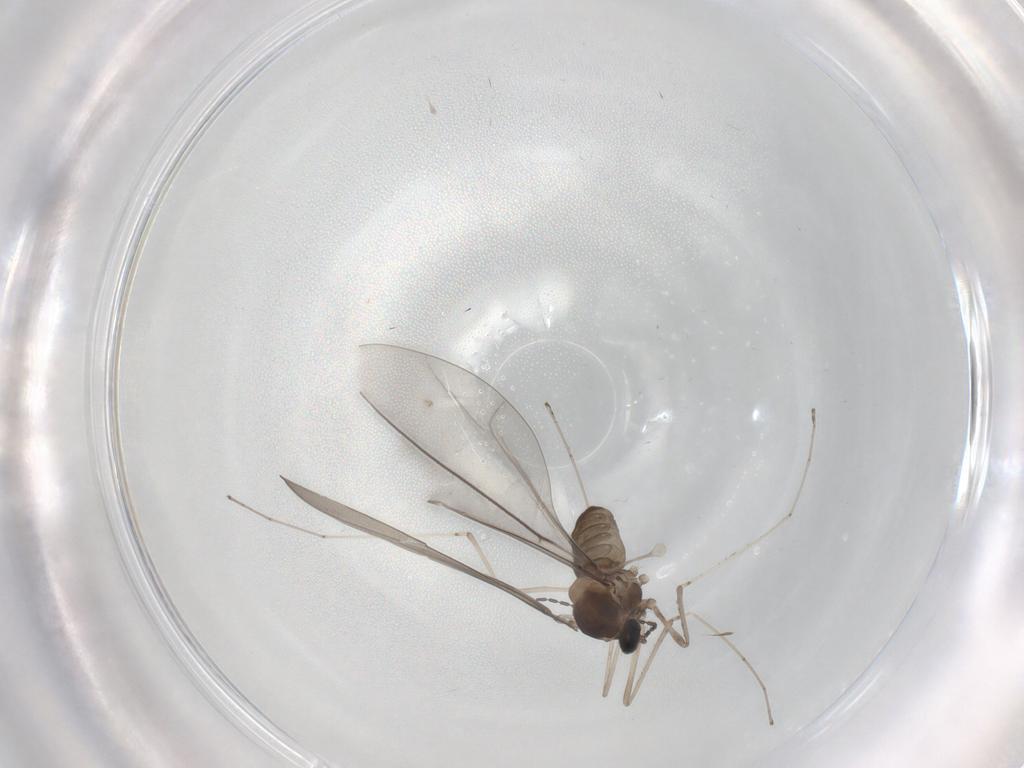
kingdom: Animalia
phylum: Arthropoda
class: Insecta
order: Diptera
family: Cecidomyiidae
